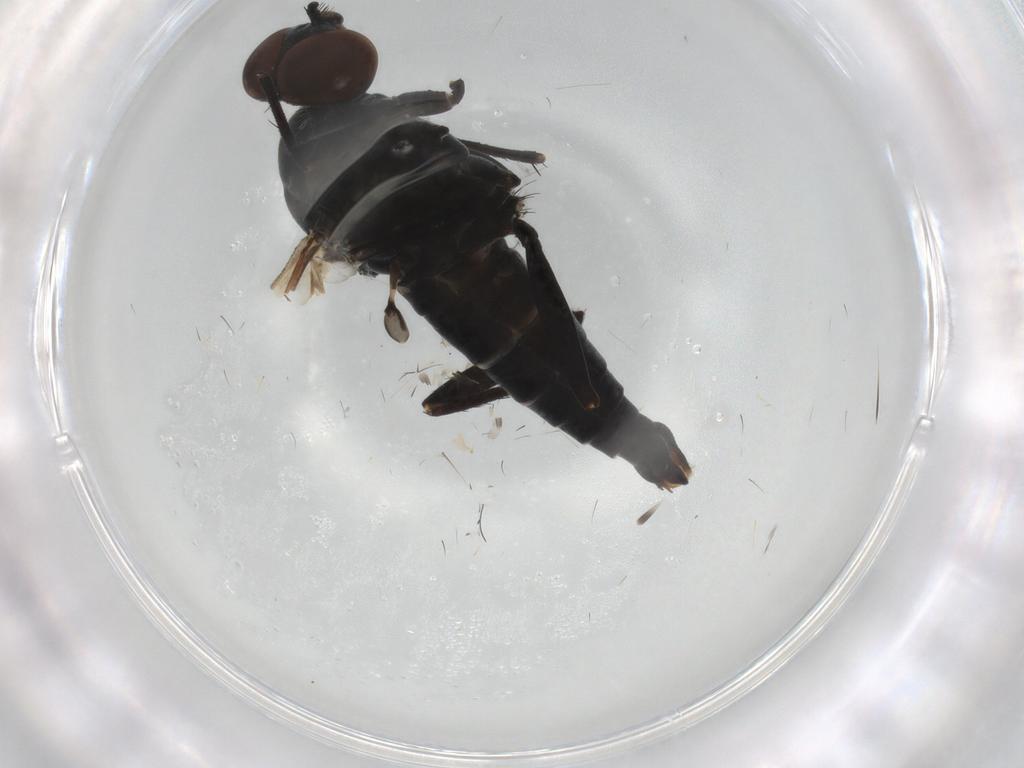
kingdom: Animalia
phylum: Arthropoda
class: Insecta
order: Diptera
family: Therevidae
